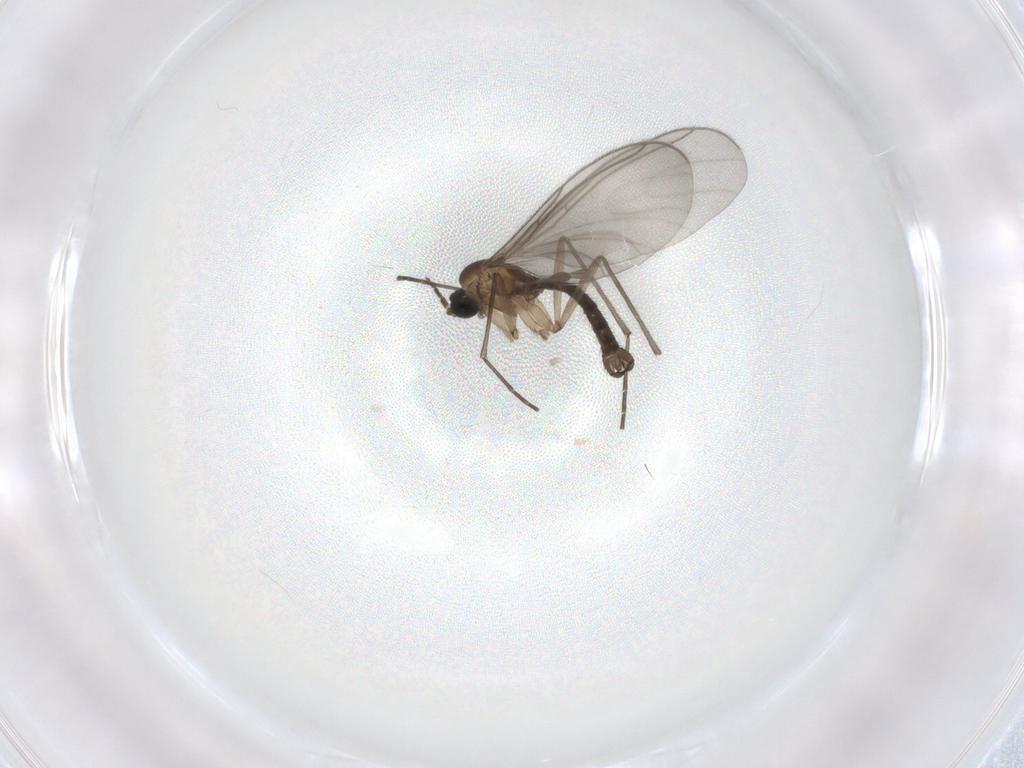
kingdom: Animalia
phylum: Arthropoda
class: Insecta
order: Diptera
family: Sciaridae
